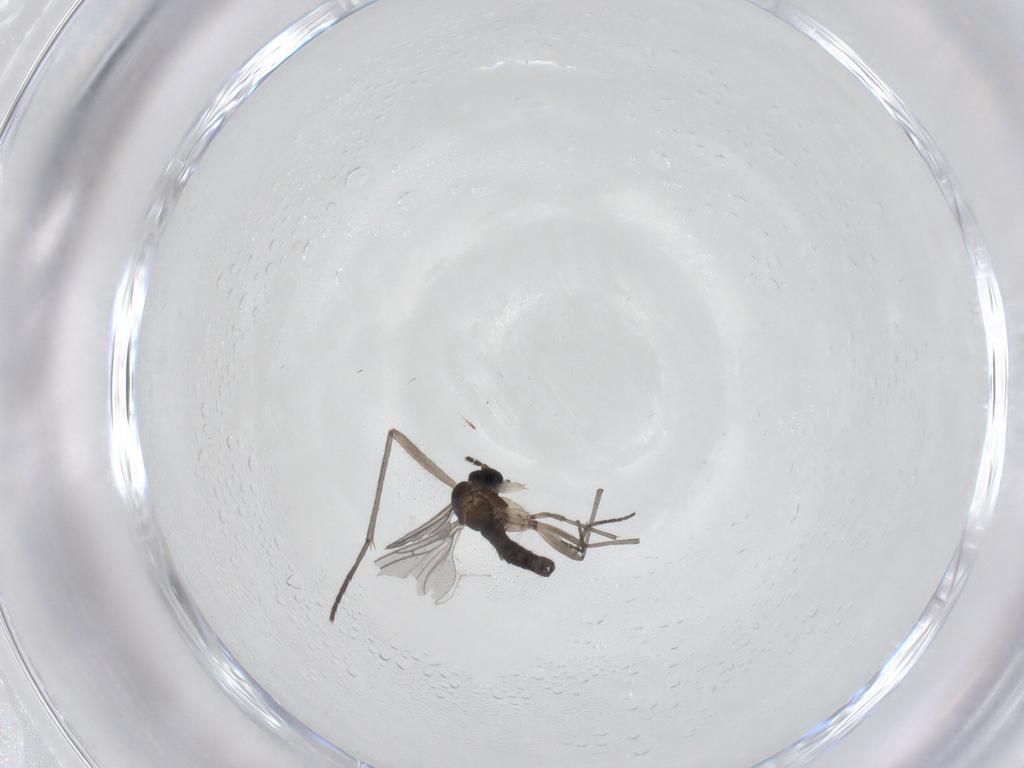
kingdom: Animalia
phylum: Arthropoda
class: Insecta
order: Diptera
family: Sciaridae
